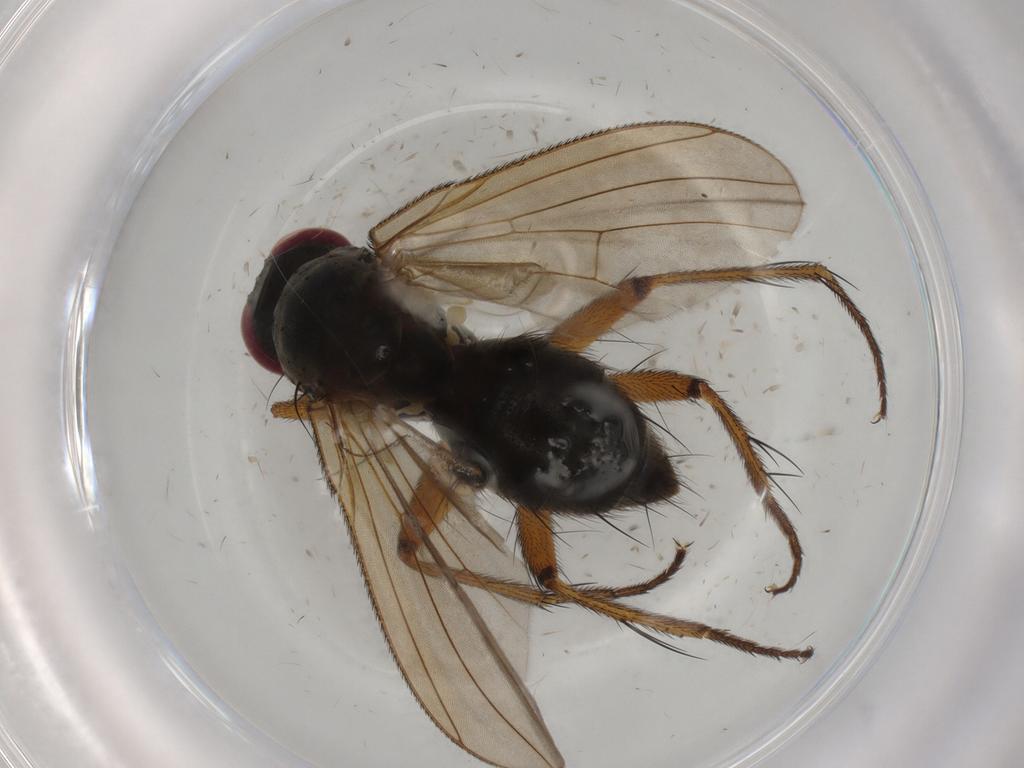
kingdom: Animalia
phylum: Arthropoda
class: Insecta
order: Diptera
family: Muscidae
